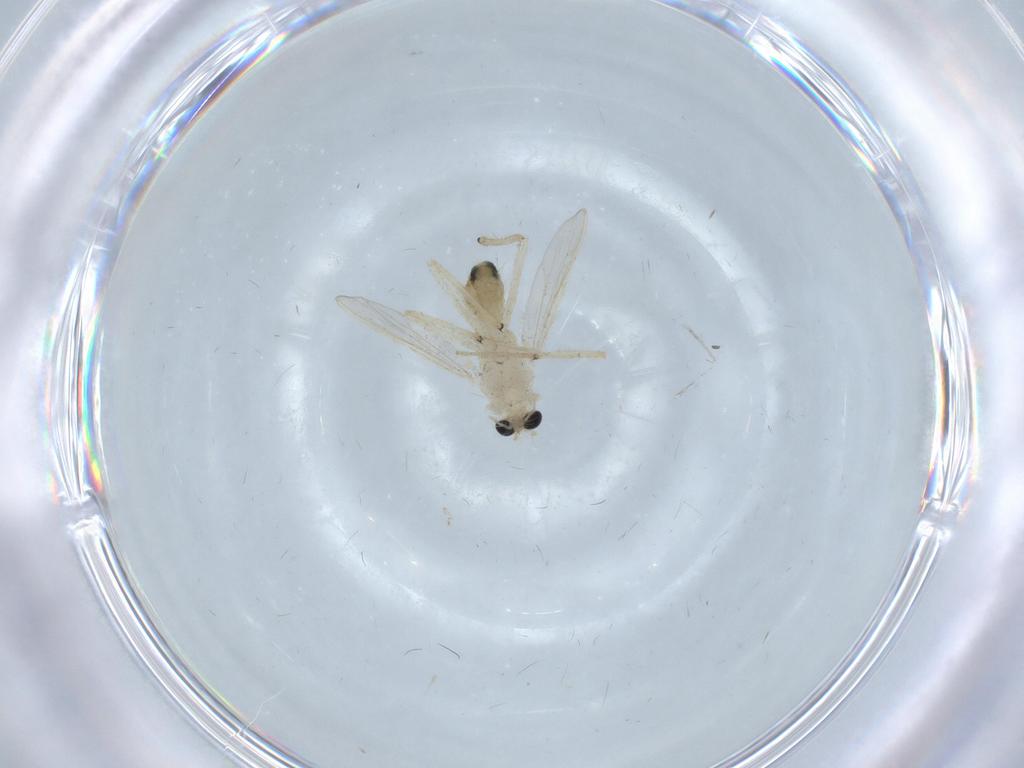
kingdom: Animalia
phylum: Arthropoda
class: Insecta
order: Diptera
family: Chironomidae
